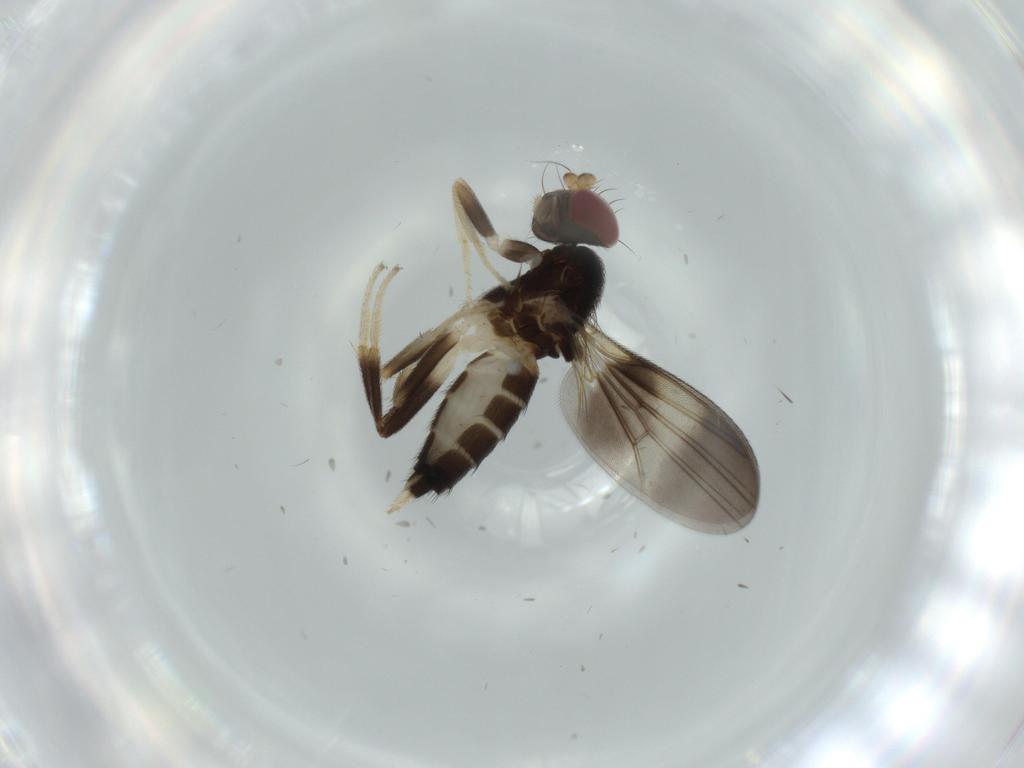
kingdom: Animalia
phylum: Arthropoda
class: Insecta
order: Diptera
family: Clusiidae
